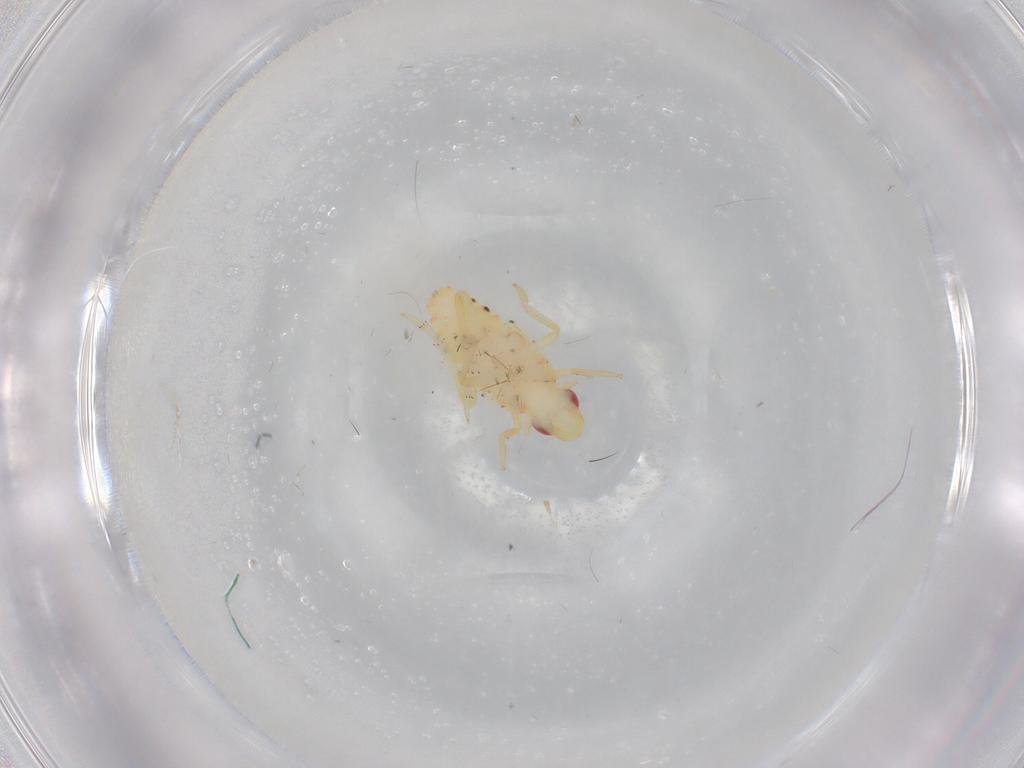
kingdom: Animalia
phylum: Arthropoda
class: Insecta
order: Hemiptera
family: Tropiduchidae
